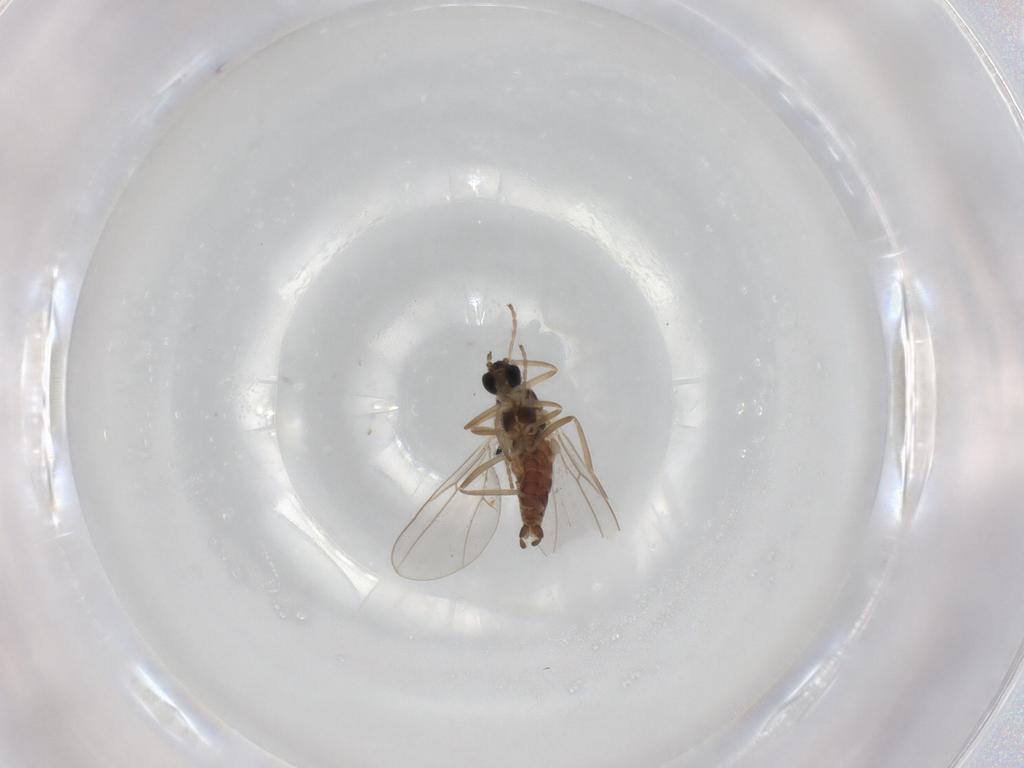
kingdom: Animalia
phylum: Arthropoda
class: Insecta
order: Diptera
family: Cecidomyiidae
